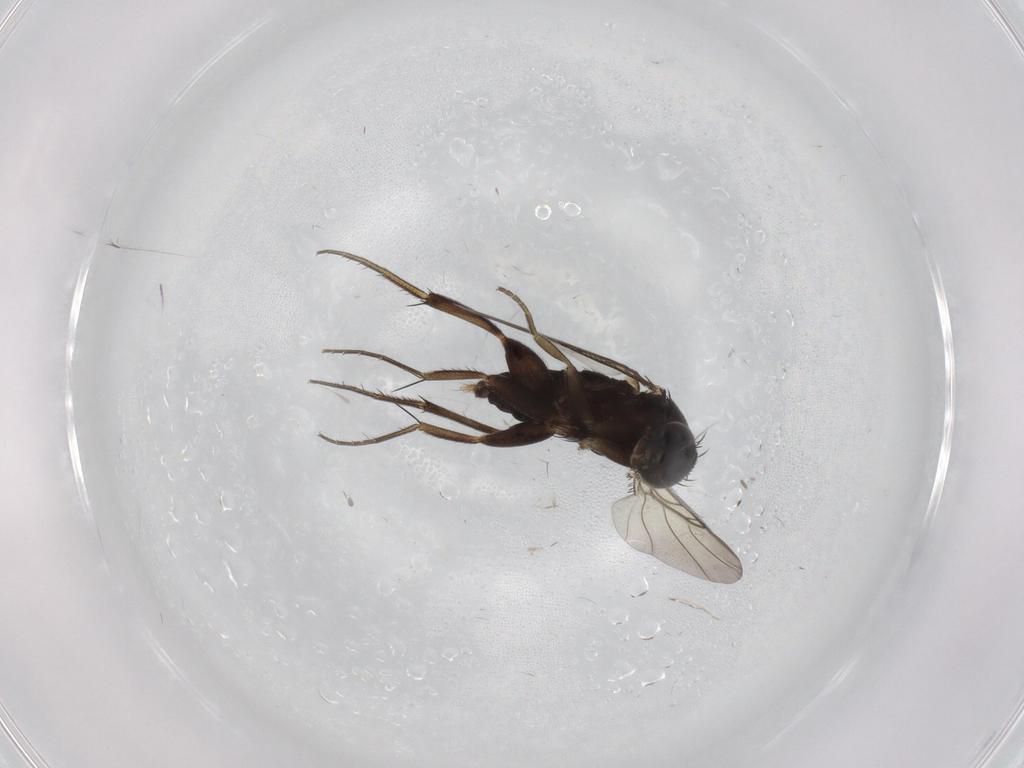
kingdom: Animalia
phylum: Arthropoda
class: Insecta
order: Diptera
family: Phoridae
